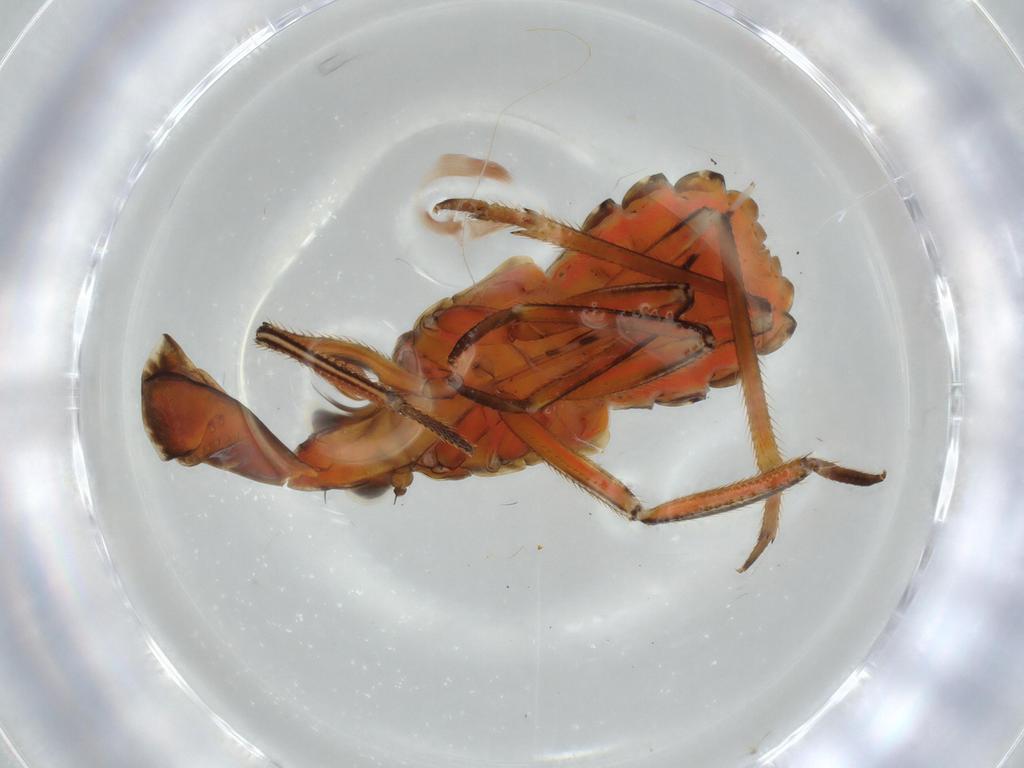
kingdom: Animalia
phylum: Arthropoda
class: Insecta
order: Hemiptera
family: Fulgoridae
